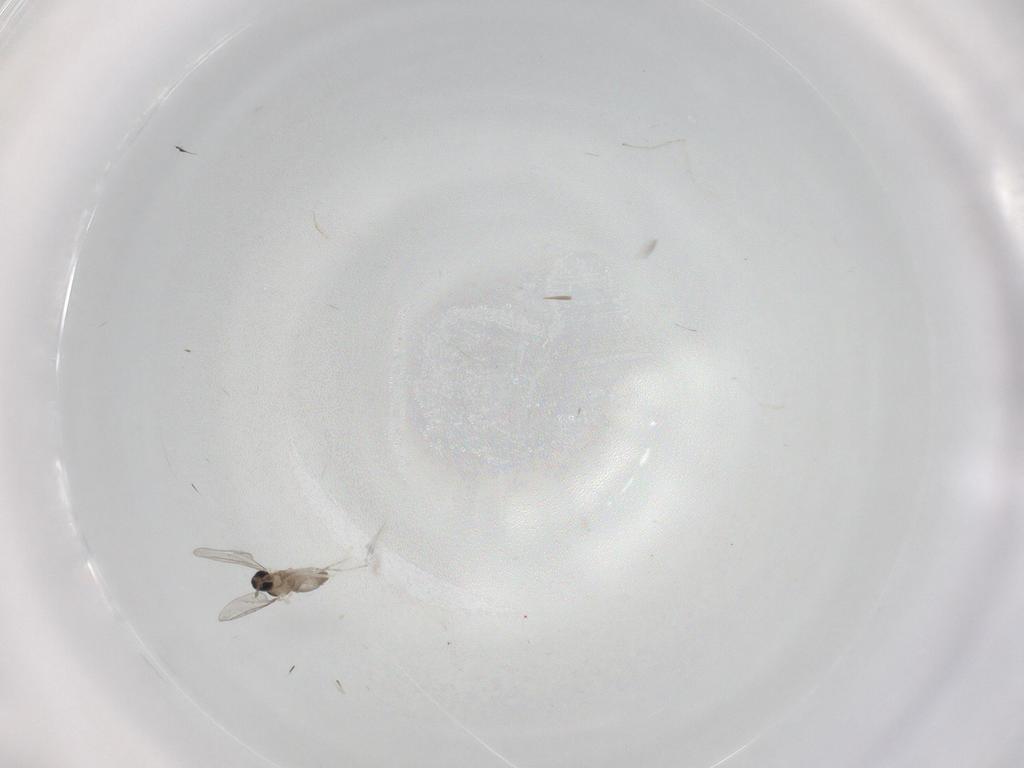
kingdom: Animalia
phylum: Arthropoda
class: Insecta
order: Diptera
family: Cecidomyiidae
